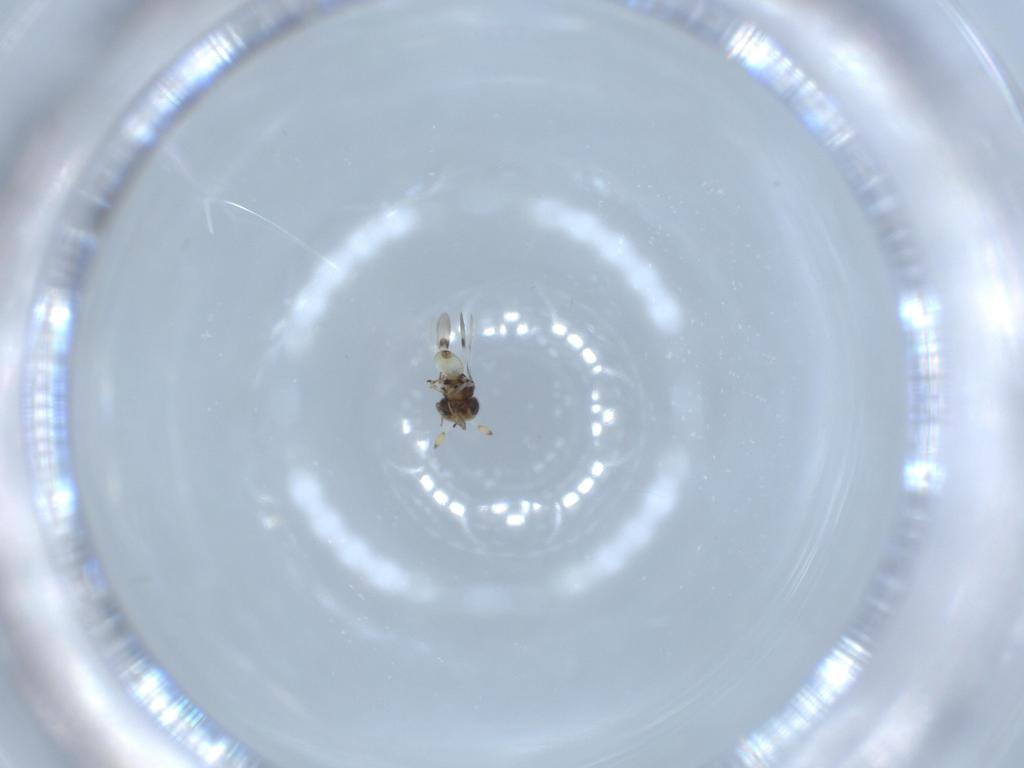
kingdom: Animalia
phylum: Arthropoda
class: Insecta
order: Hymenoptera
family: Scelionidae
